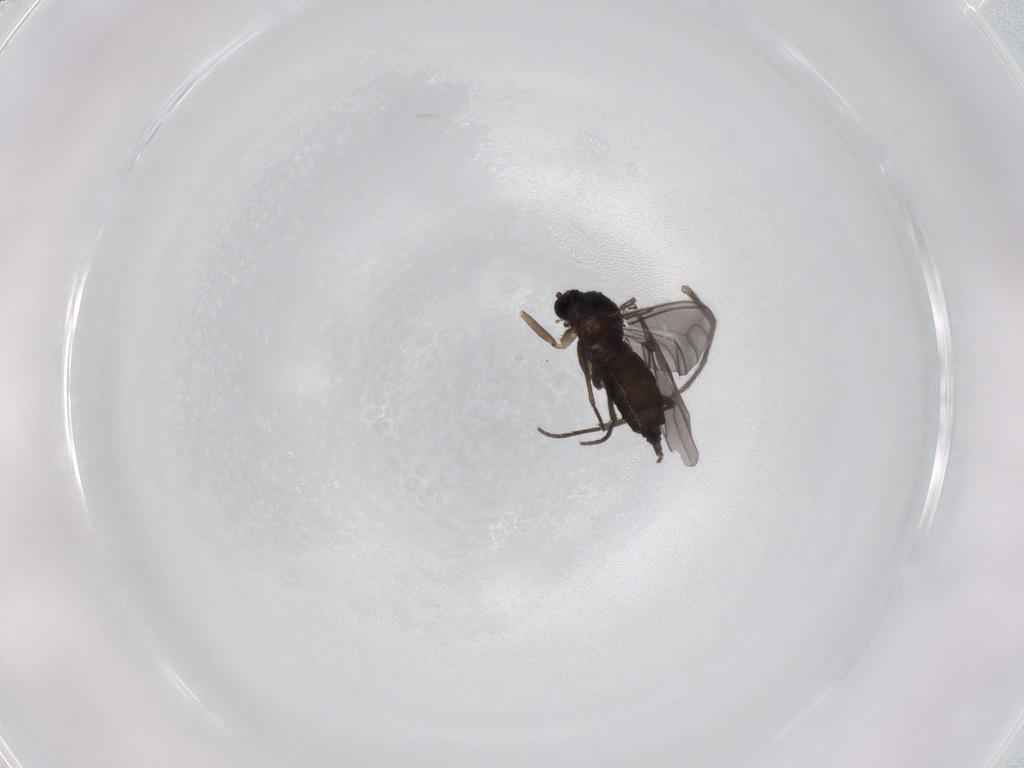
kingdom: Animalia
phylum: Arthropoda
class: Insecta
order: Diptera
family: Sciaridae
